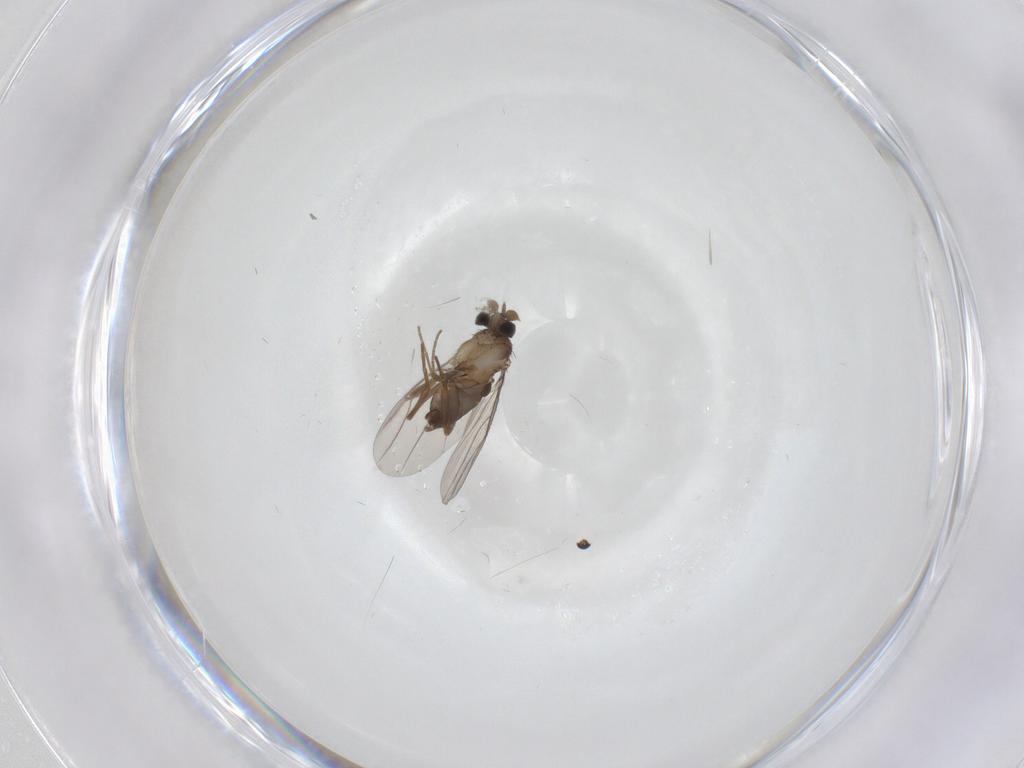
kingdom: Animalia
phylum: Arthropoda
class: Insecta
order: Diptera
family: Phoridae
